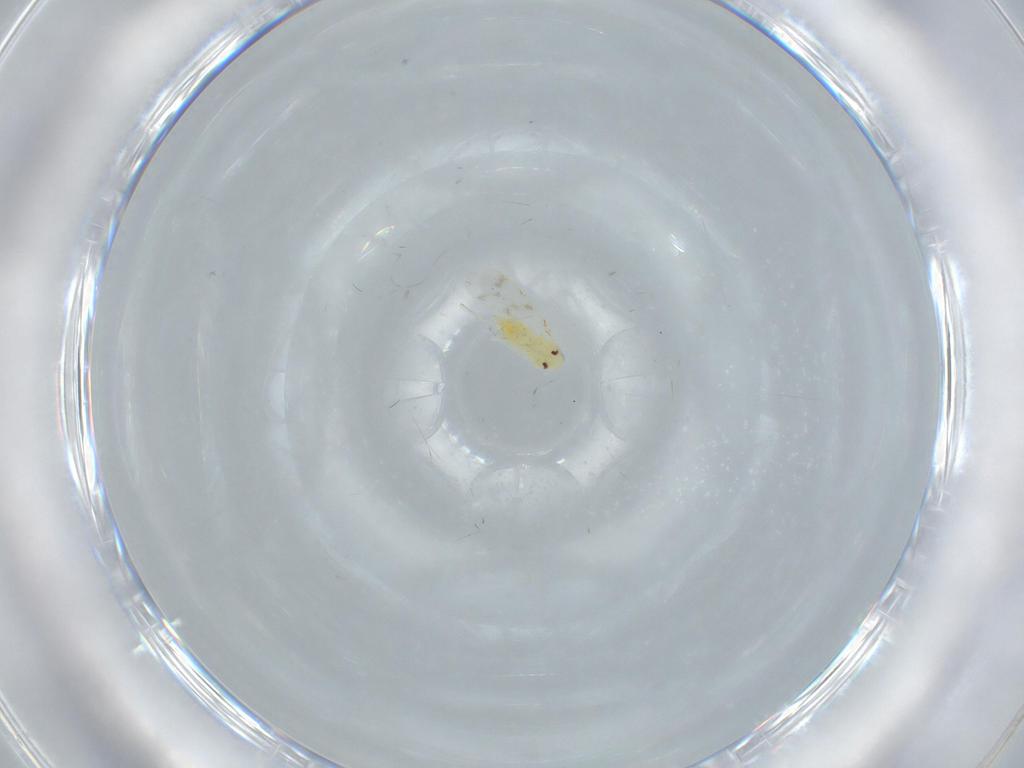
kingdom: Animalia
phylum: Arthropoda
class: Insecta
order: Hemiptera
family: Aleyrodidae
